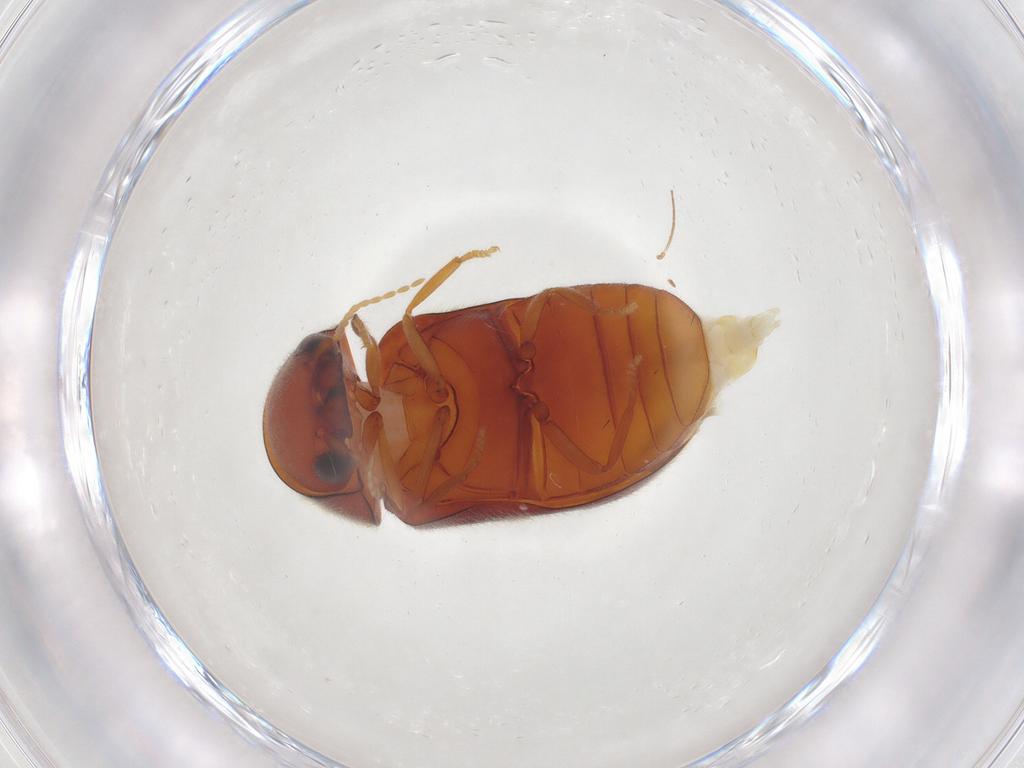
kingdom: Animalia
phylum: Arthropoda
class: Insecta
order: Coleoptera
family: Ptinidae
